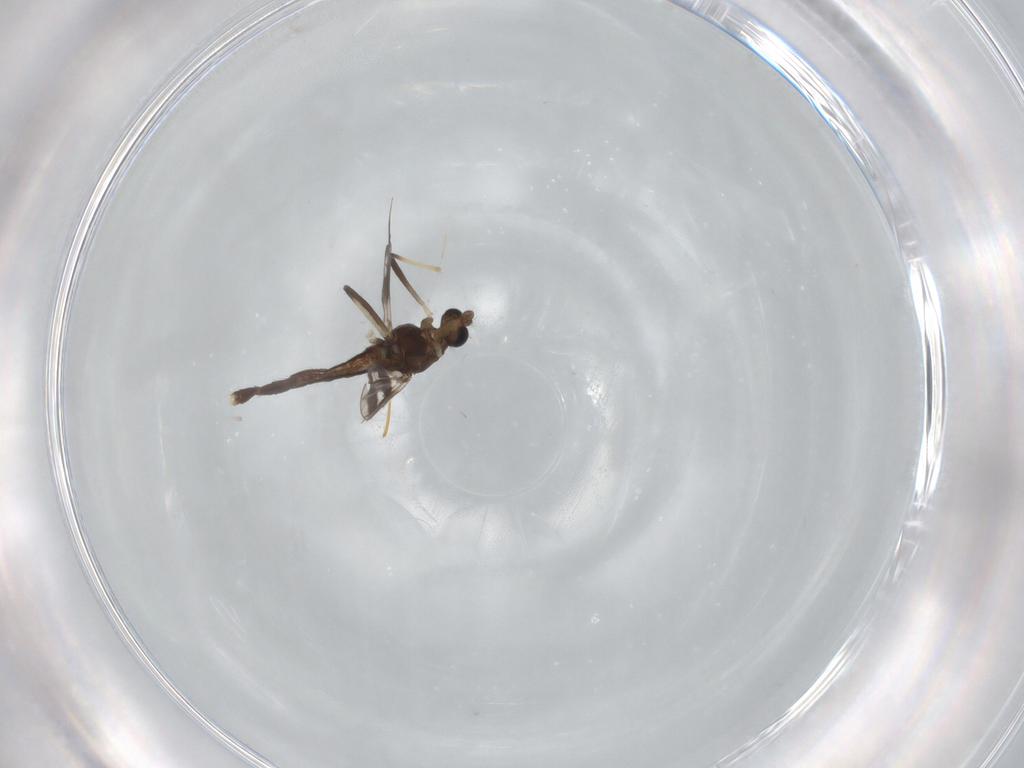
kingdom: Animalia
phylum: Arthropoda
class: Insecta
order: Diptera
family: Chironomidae
